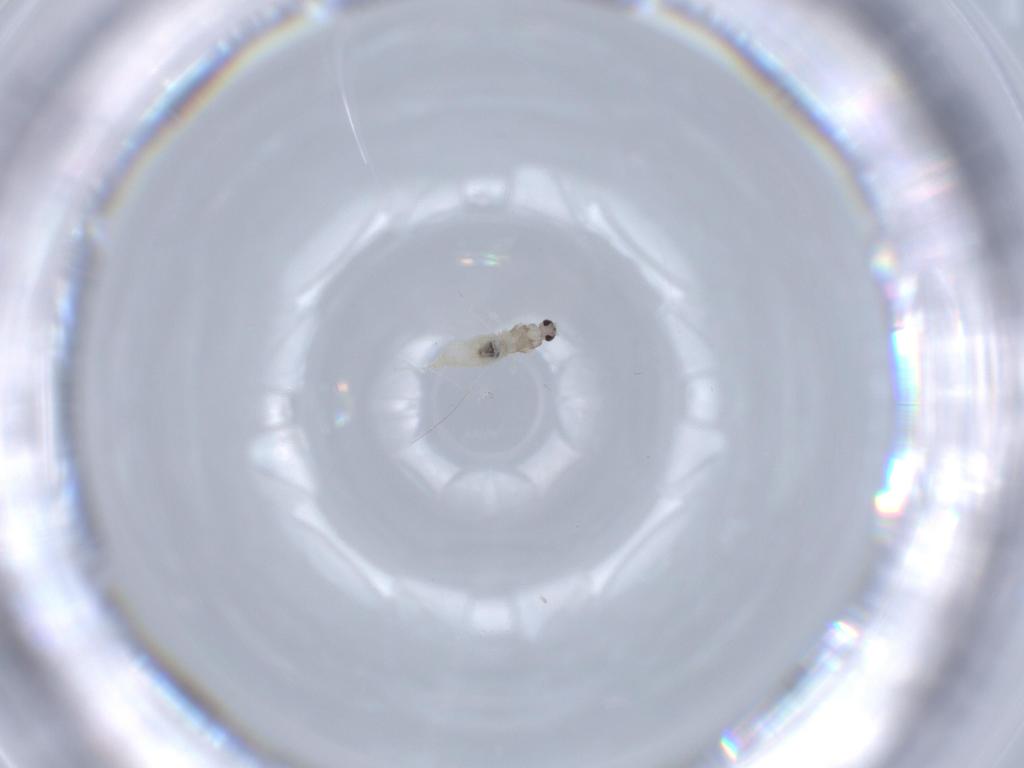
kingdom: Animalia
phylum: Arthropoda
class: Insecta
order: Diptera
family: Cecidomyiidae
